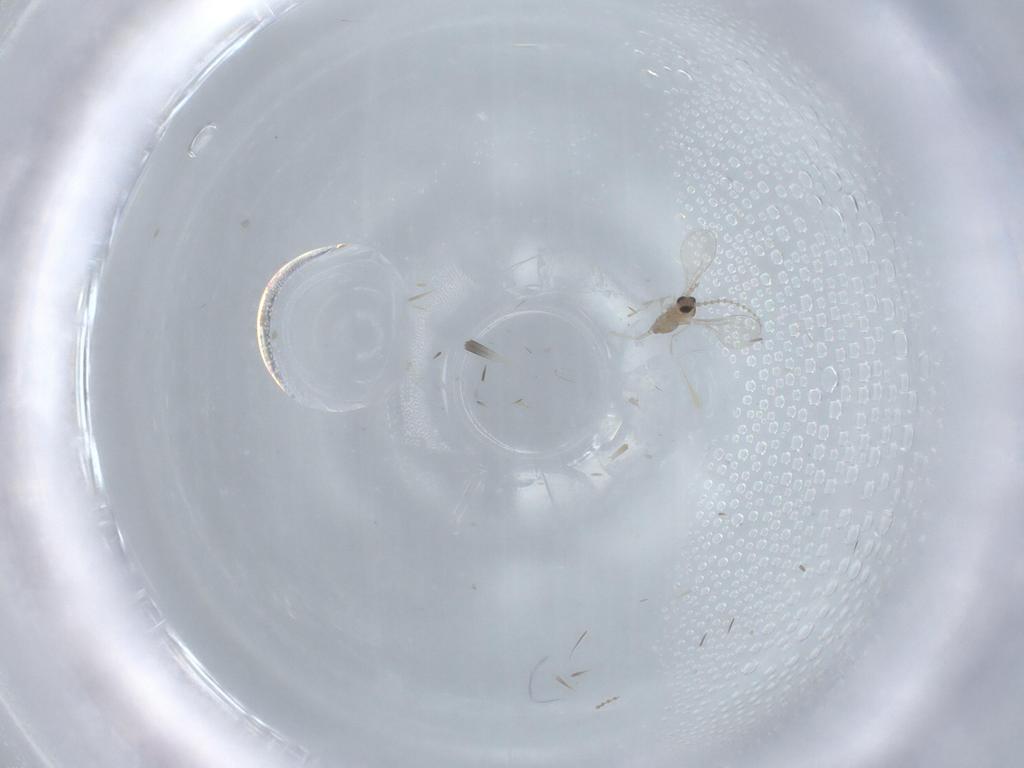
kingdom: Animalia
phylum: Arthropoda
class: Insecta
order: Diptera
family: Cecidomyiidae
